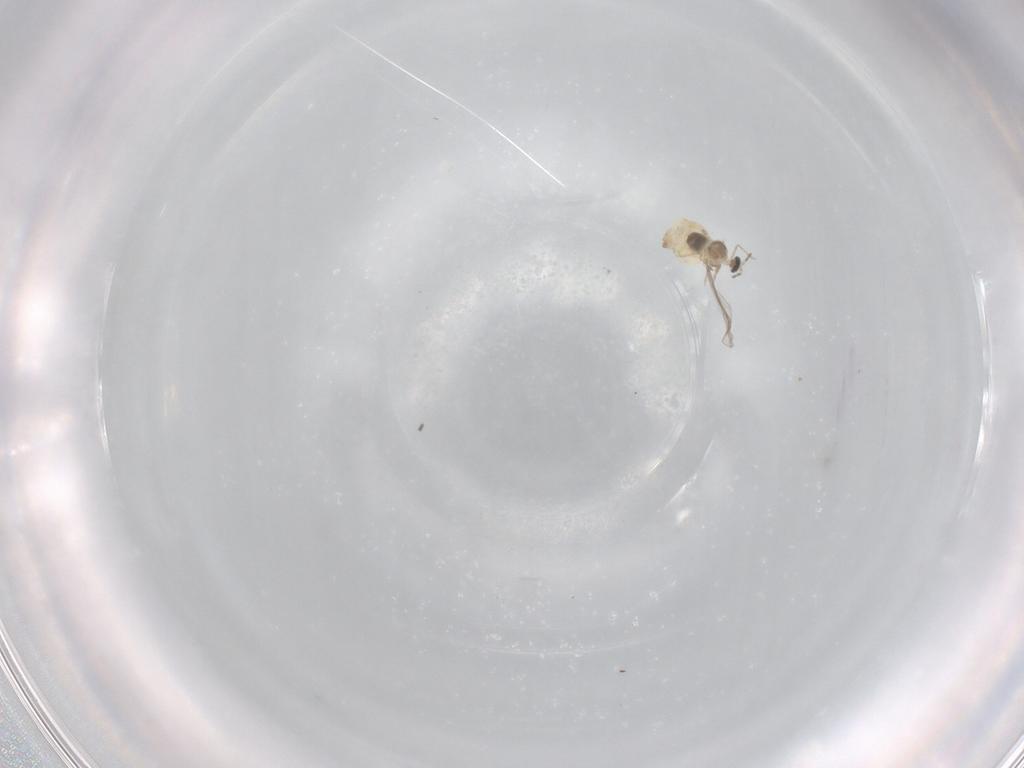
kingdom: Animalia
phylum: Arthropoda
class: Insecta
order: Diptera
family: Cecidomyiidae
